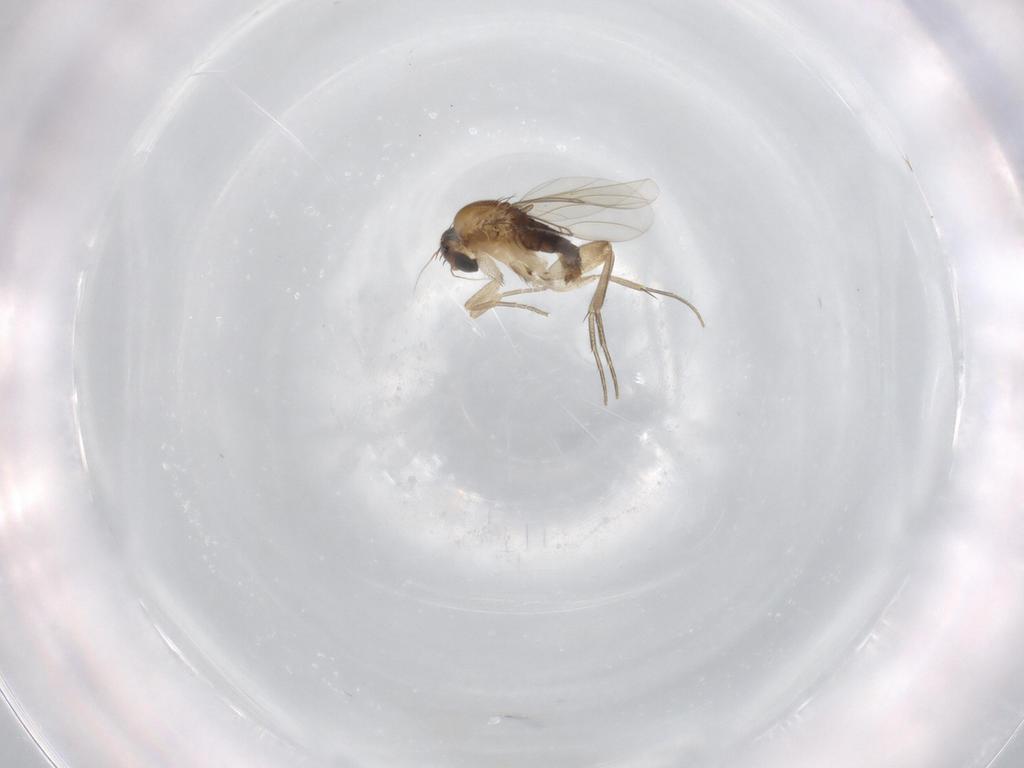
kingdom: Animalia
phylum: Arthropoda
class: Insecta
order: Diptera
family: Phoridae
